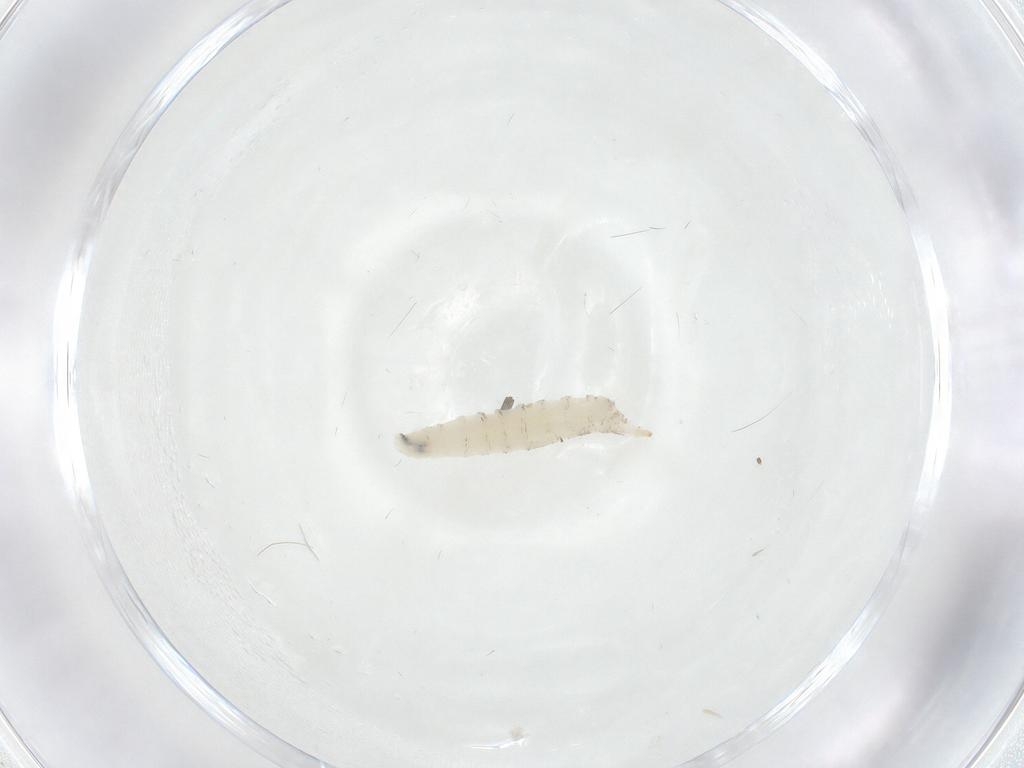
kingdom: Animalia
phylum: Arthropoda
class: Insecta
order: Diptera
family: Drosophilidae
